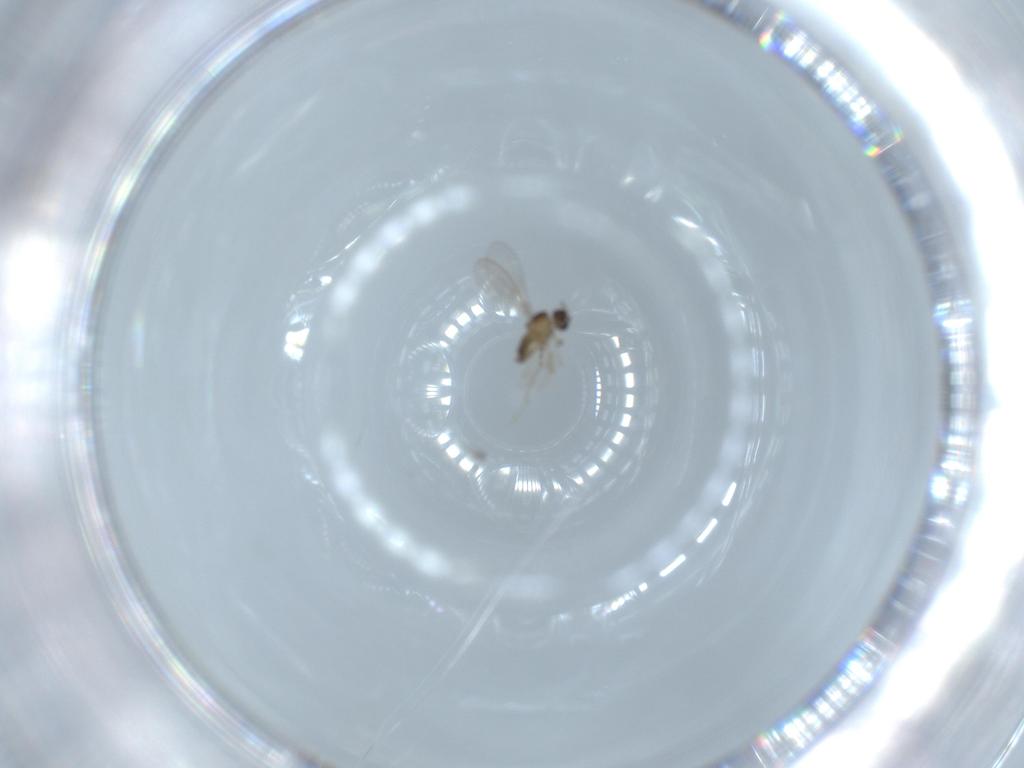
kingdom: Animalia
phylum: Arthropoda
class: Insecta
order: Diptera
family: Cecidomyiidae
